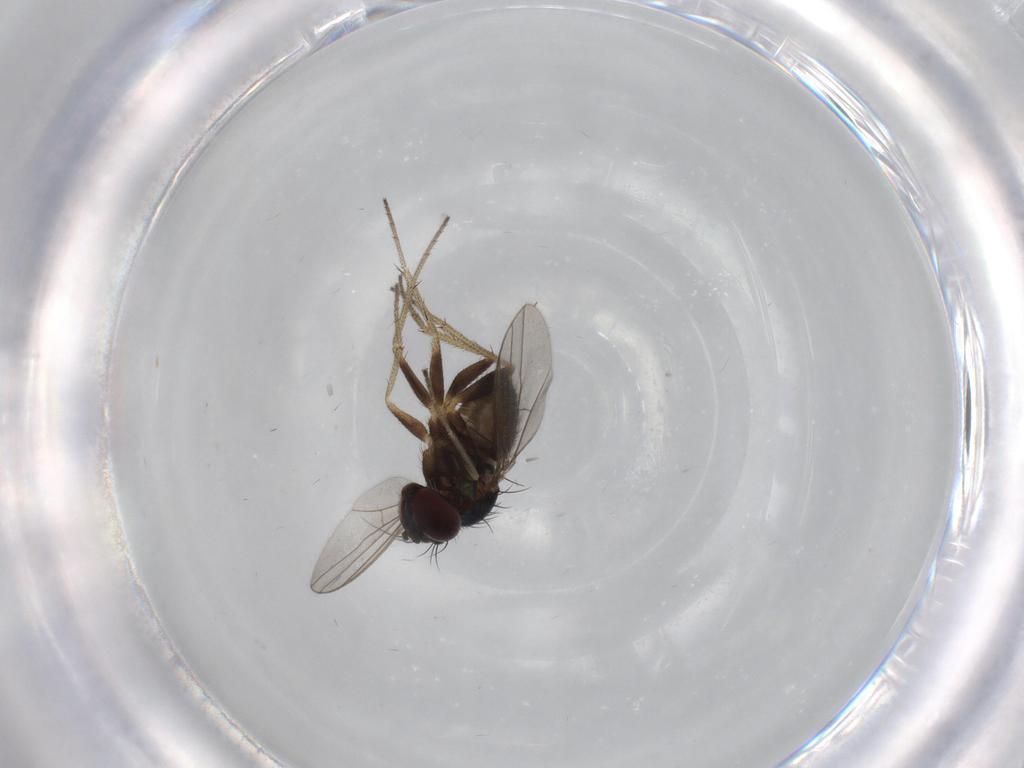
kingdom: Animalia
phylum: Arthropoda
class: Insecta
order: Diptera
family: Dolichopodidae
